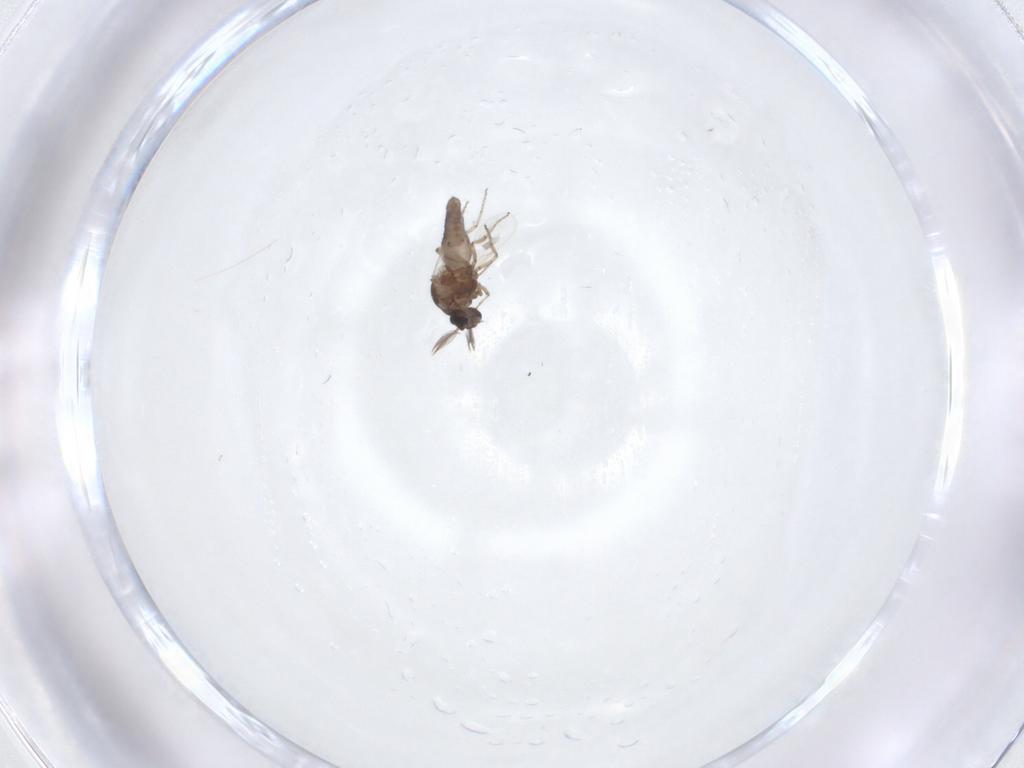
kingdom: Animalia
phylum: Arthropoda
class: Insecta
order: Diptera
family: Ceratopogonidae
